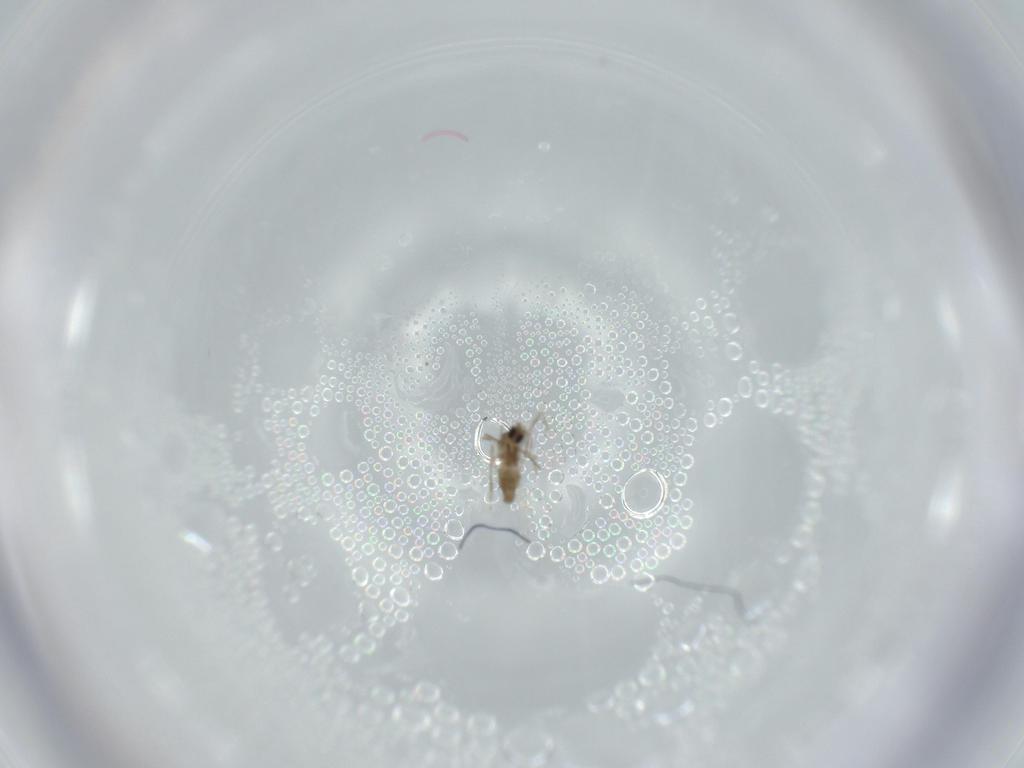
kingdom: Animalia
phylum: Arthropoda
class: Insecta
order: Diptera
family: Cecidomyiidae
